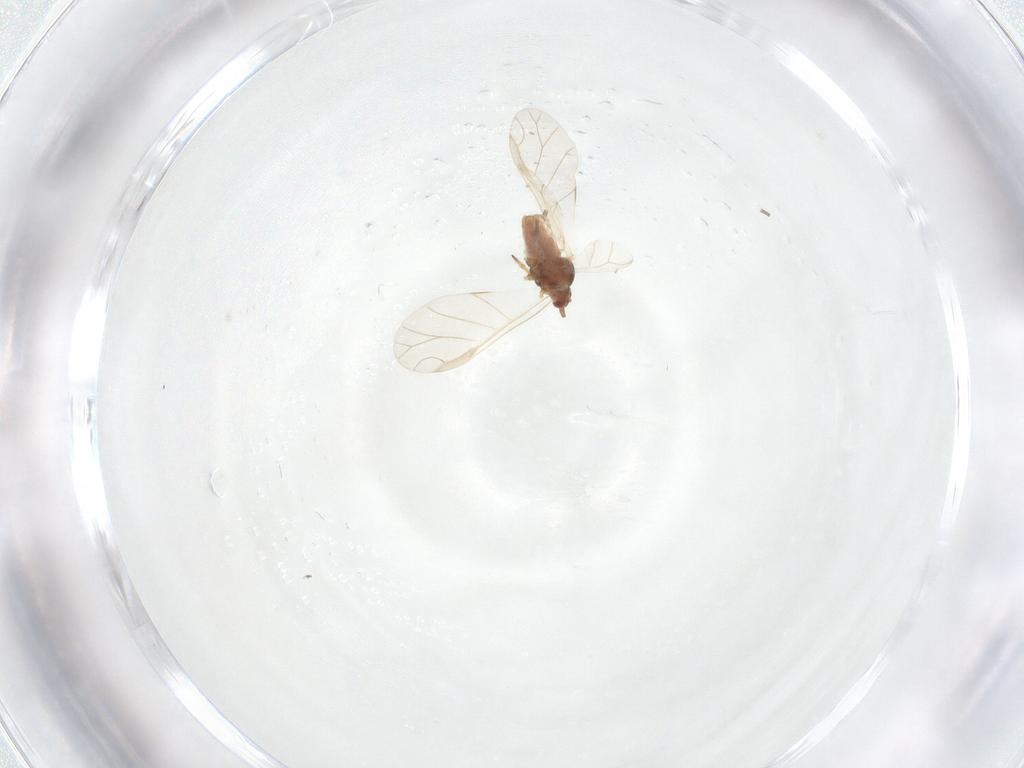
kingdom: Animalia
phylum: Arthropoda
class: Insecta
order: Hemiptera
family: Aphididae
